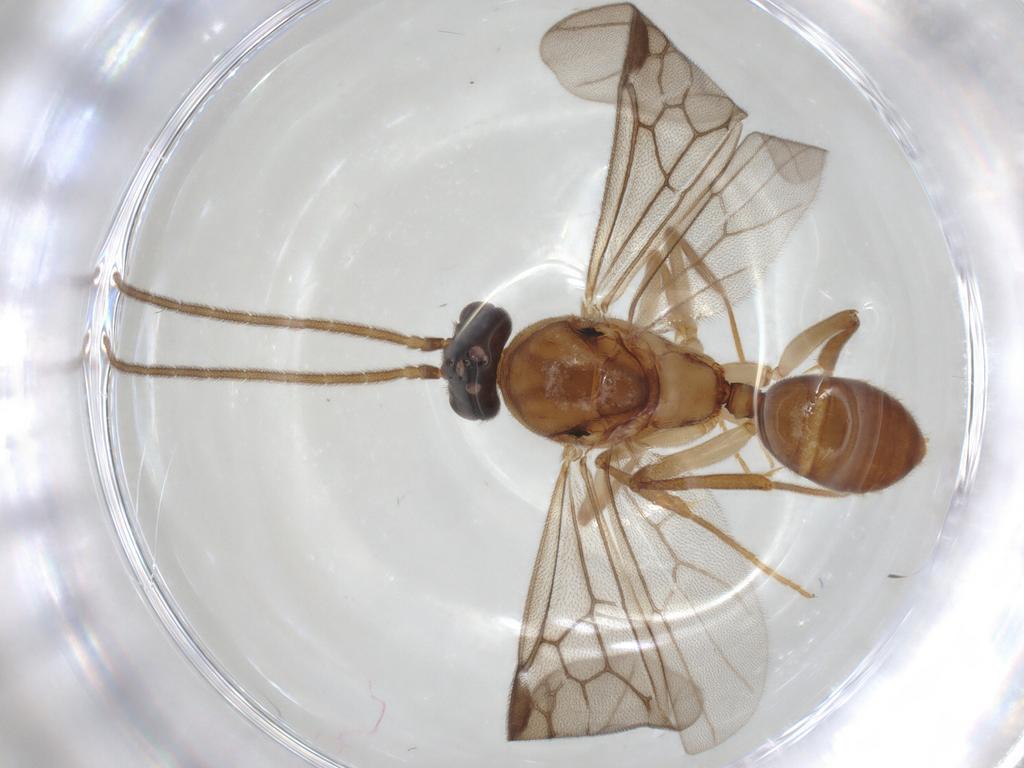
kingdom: Animalia
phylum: Arthropoda
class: Insecta
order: Hymenoptera
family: Formicidae
